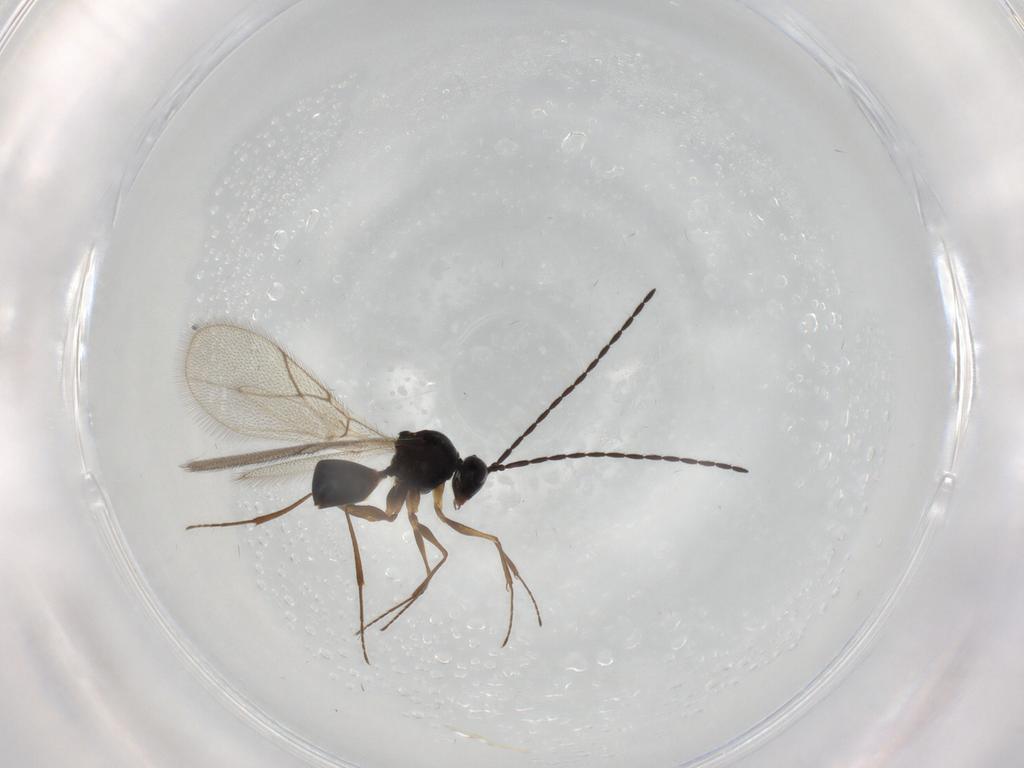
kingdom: Animalia
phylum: Arthropoda
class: Insecta
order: Hymenoptera
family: Figitidae
